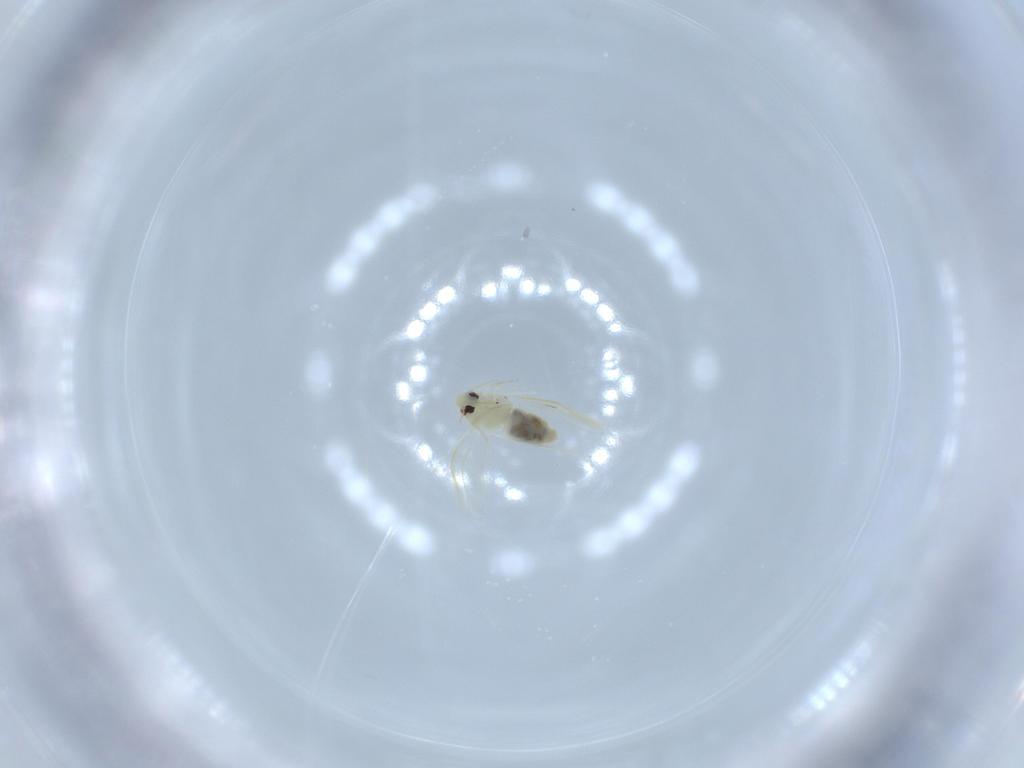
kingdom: Animalia
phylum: Arthropoda
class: Insecta
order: Hemiptera
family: Aleyrodidae
